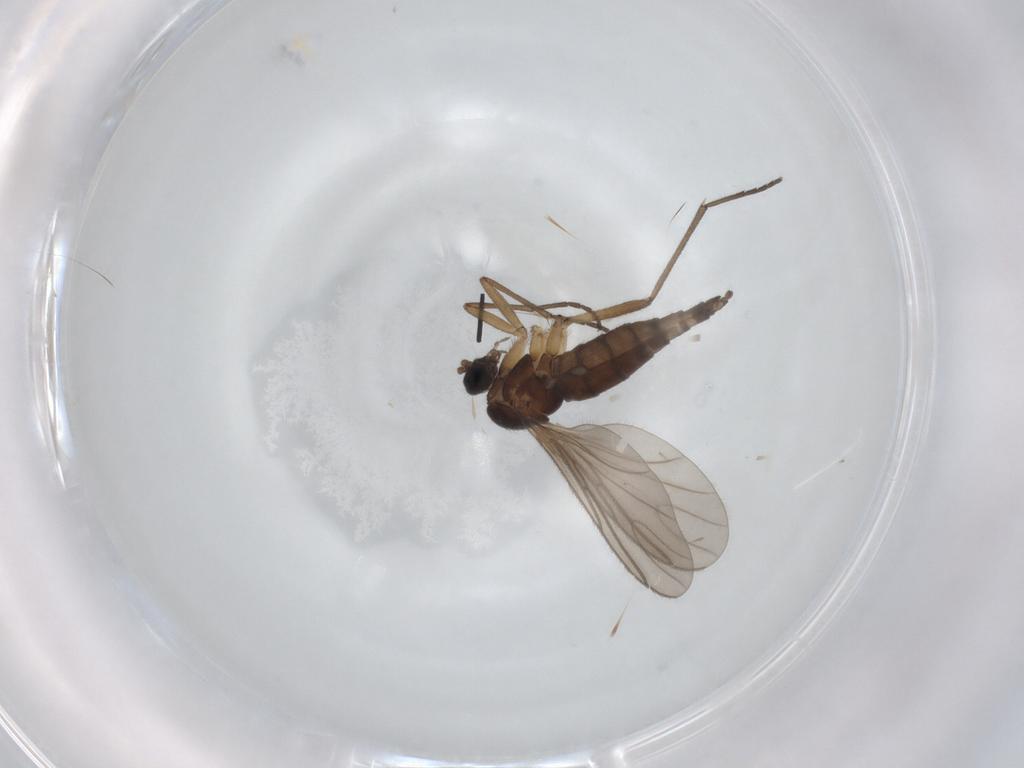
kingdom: Animalia
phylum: Arthropoda
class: Insecta
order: Diptera
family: Sciaridae
